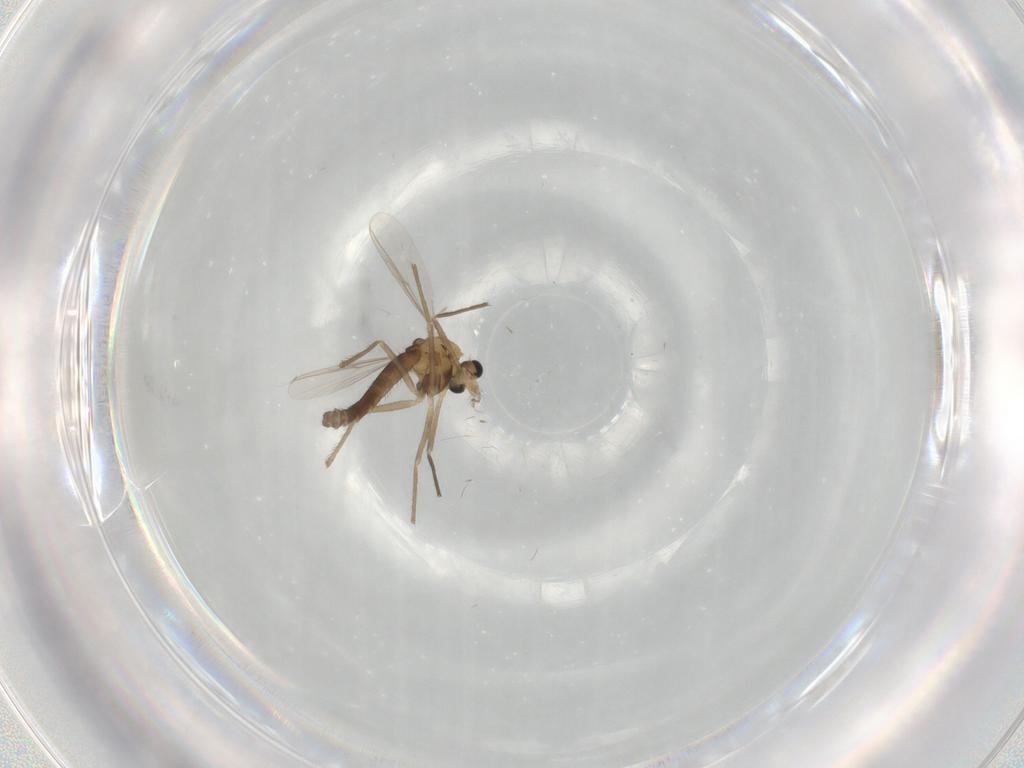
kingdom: Animalia
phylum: Arthropoda
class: Insecta
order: Diptera
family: Chironomidae
